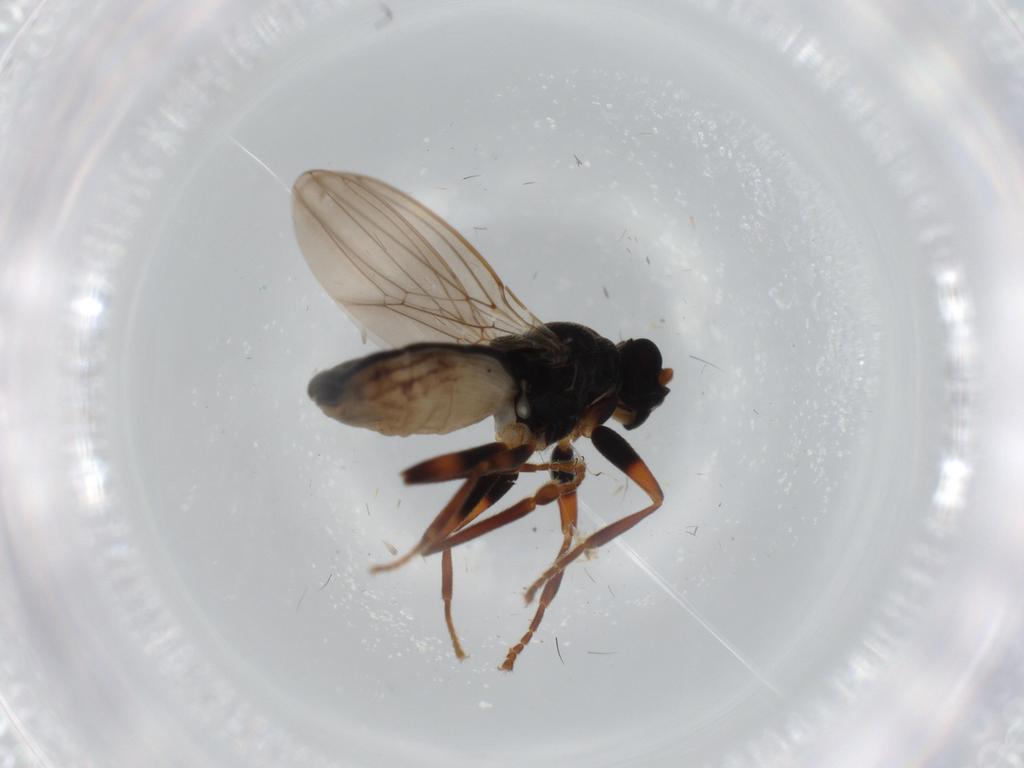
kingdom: Animalia
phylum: Arthropoda
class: Insecta
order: Diptera
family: Sphaeroceridae
